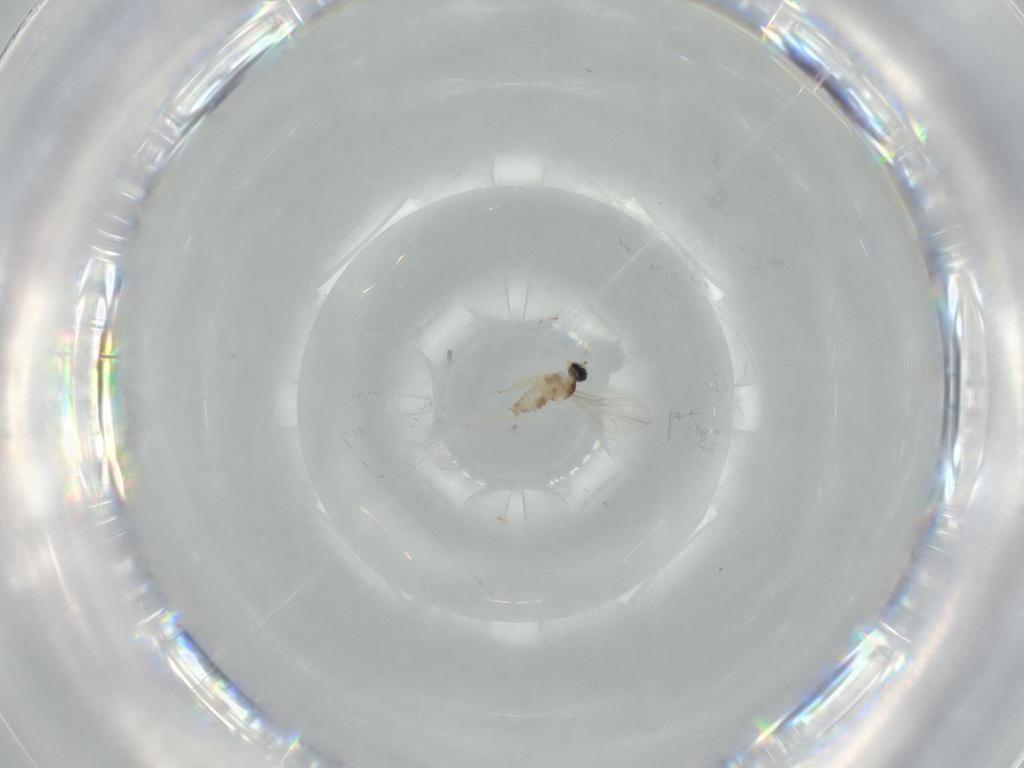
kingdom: Animalia
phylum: Arthropoda
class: Insecta
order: Diptera
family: Cecidomyiidae
